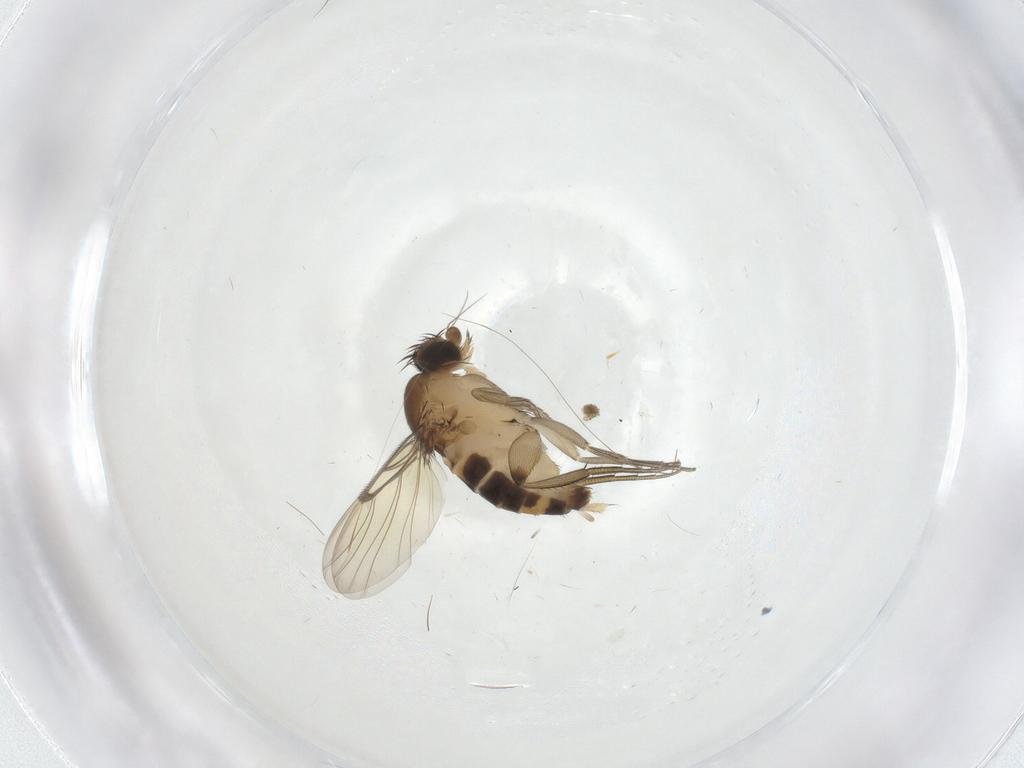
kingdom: Animalia
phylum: Arthropoda
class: Insecta
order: Diptera
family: Phoridae
